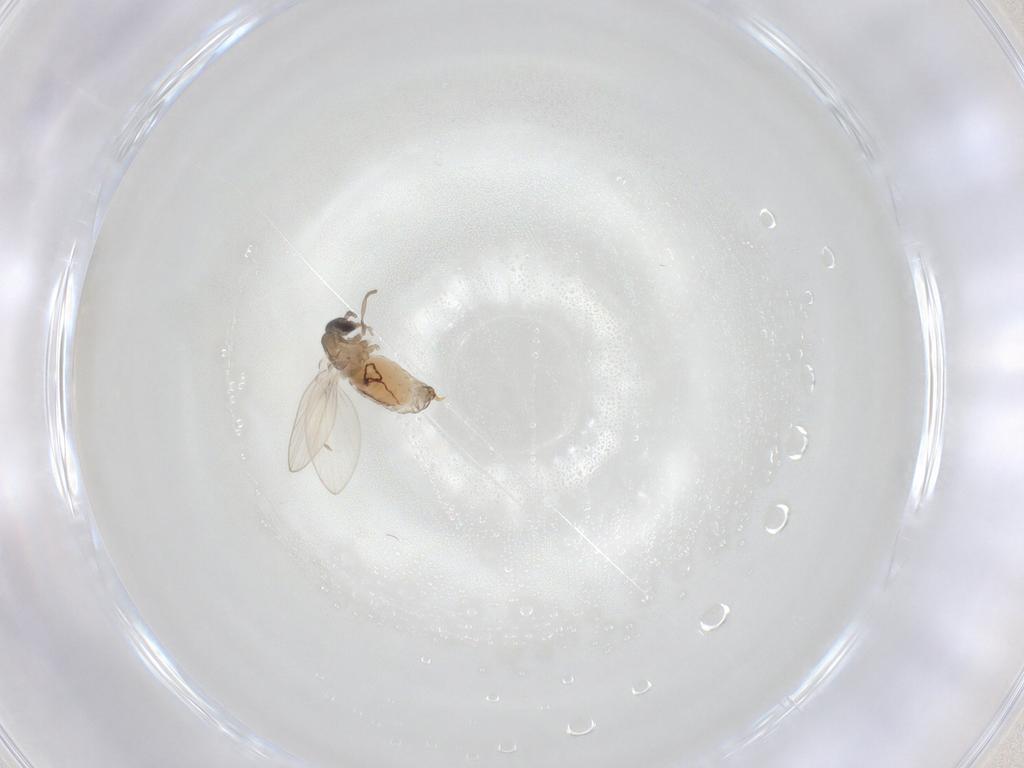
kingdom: Animalia
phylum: Arthropoda
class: Insecta
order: Diptera
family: Psychodidae
